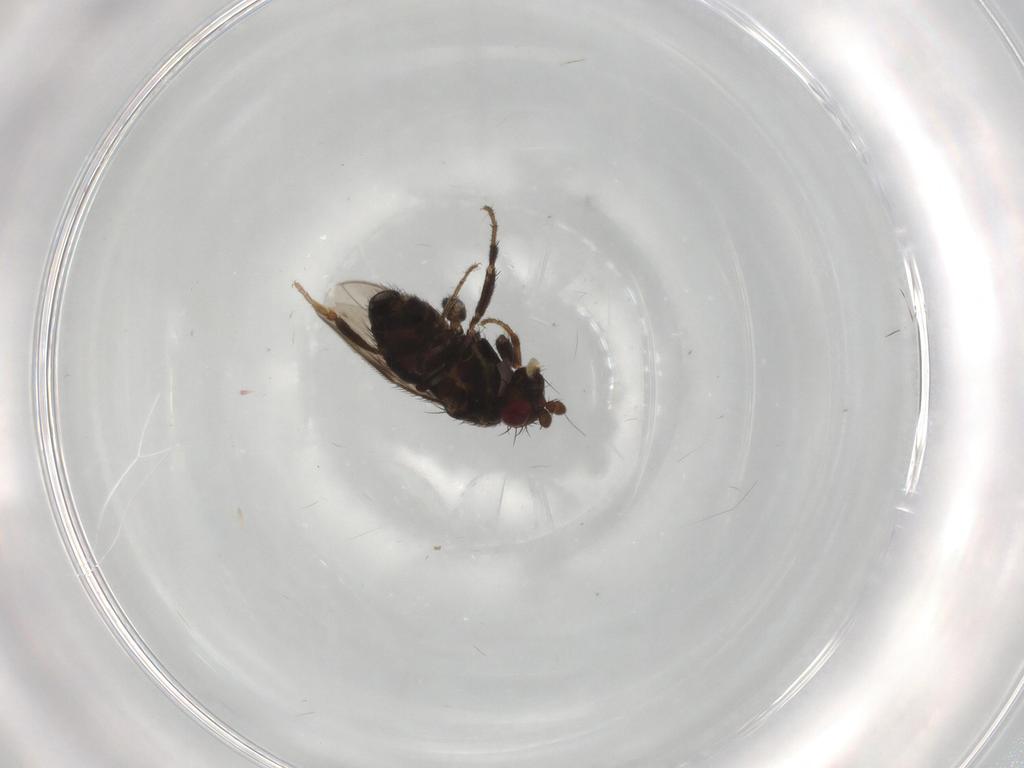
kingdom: Animalia
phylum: Arthropoda
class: Insecta
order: Diptera
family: Sphaeroceridae
